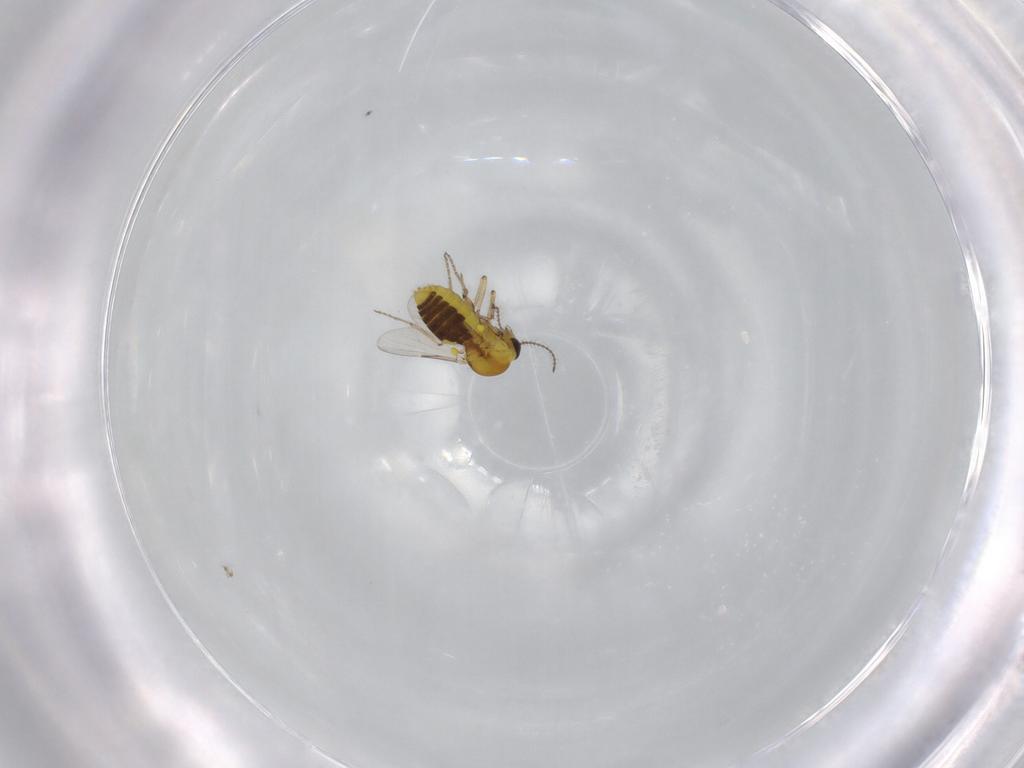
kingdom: Animalia
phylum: Arthropoda
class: Insecta
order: Diptera
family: Phoridae
